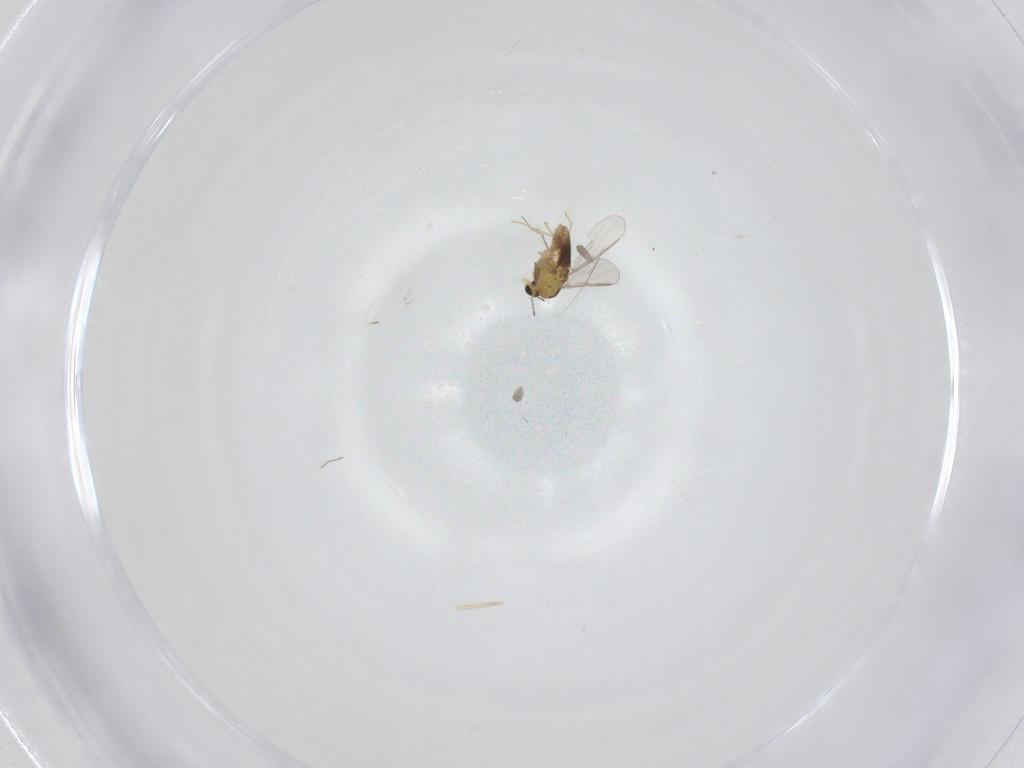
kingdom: Animalia
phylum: Arthropoda
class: Insecta
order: Diptera
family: Chironomidae
